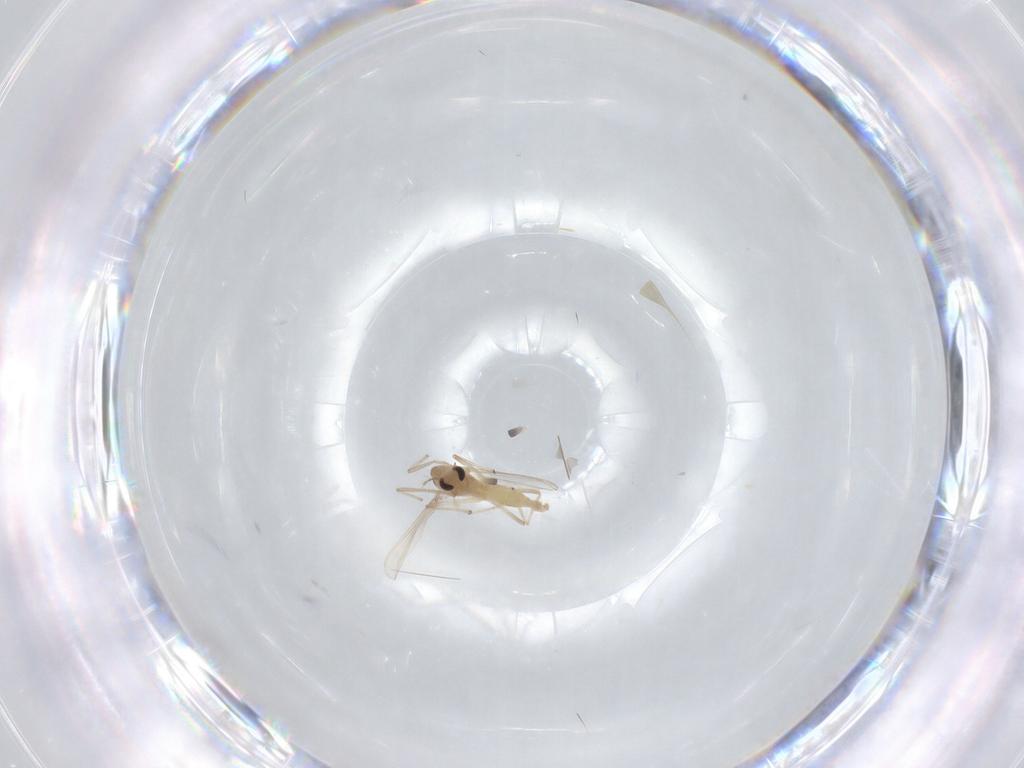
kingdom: Animalia
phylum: Arthropoda
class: Insecta
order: Diptera
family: Chironomidae
